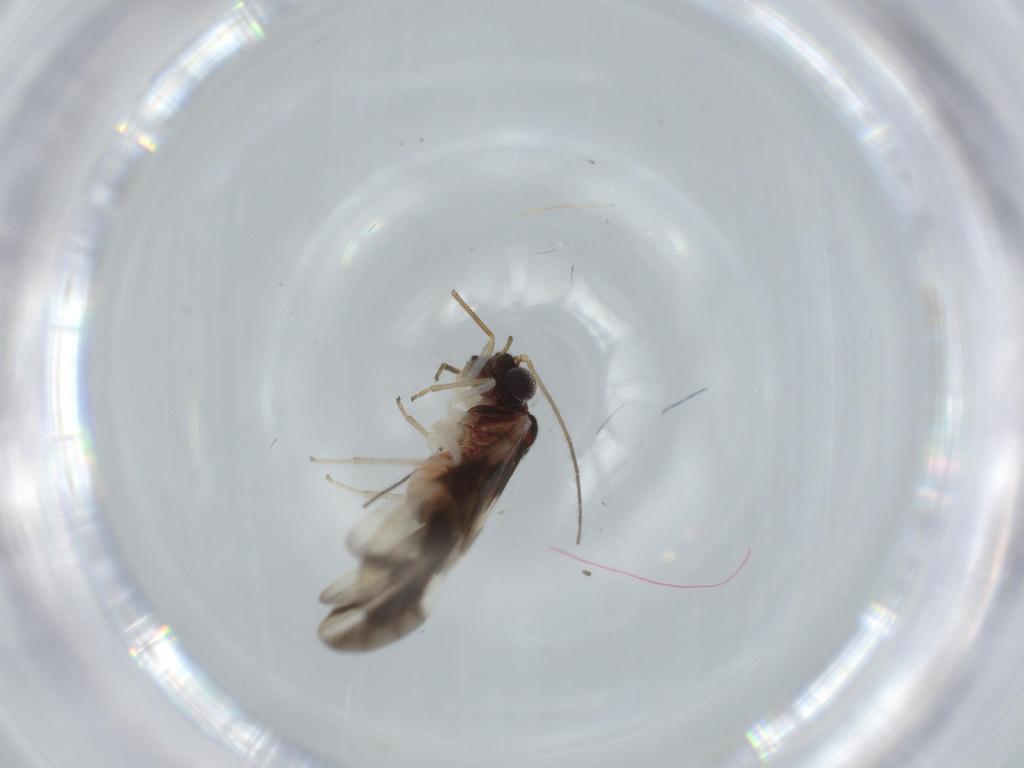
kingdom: Animalia
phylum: Arthropoda
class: Insecta
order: Psocodea
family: Caeciliusidae
